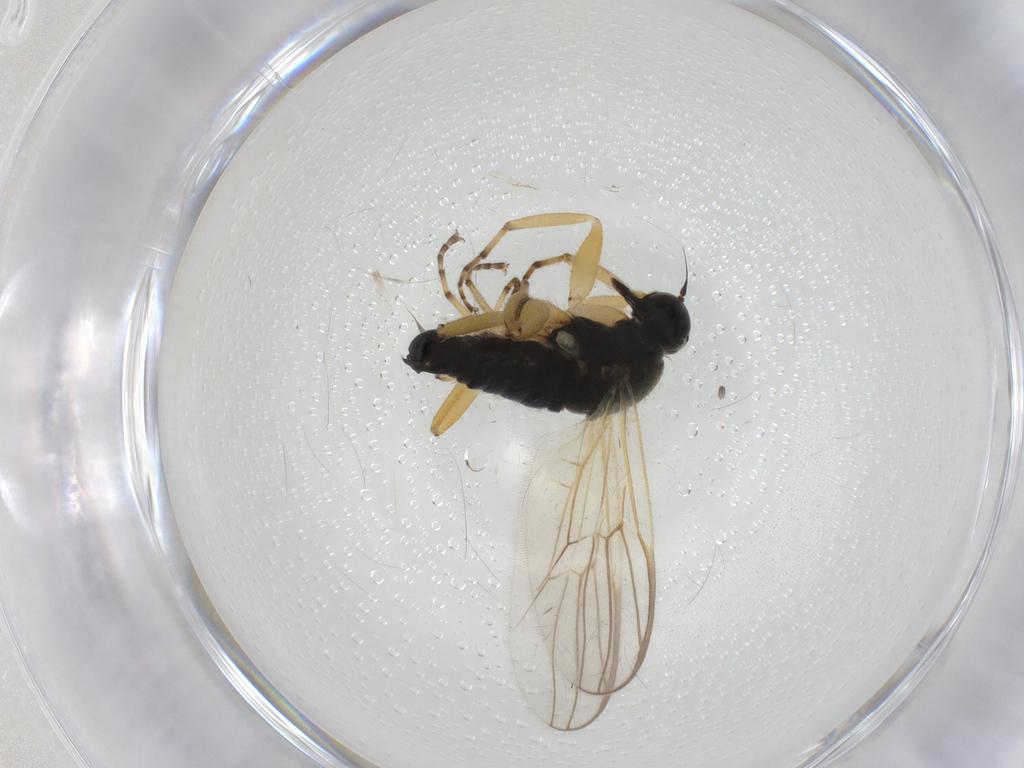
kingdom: Animalia
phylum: Arthropoda
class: Insecta
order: Diptera
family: Hybotidae
